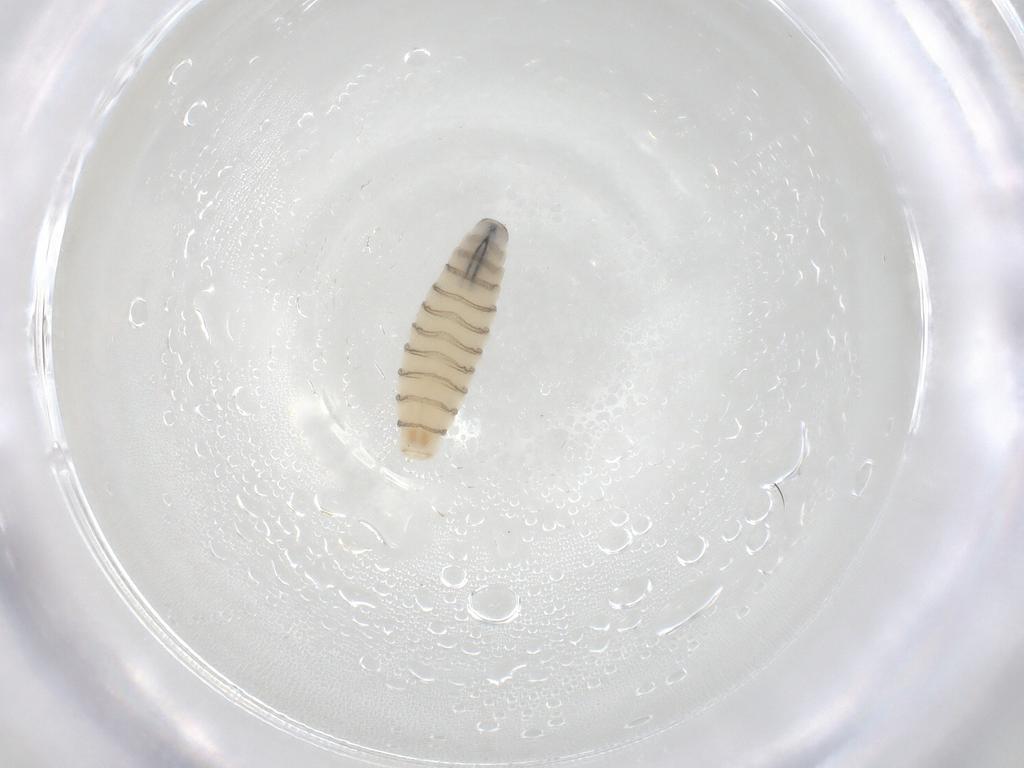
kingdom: Animalia
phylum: Arthropoda
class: Insecta
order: Diptera
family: Sarcophagidae
